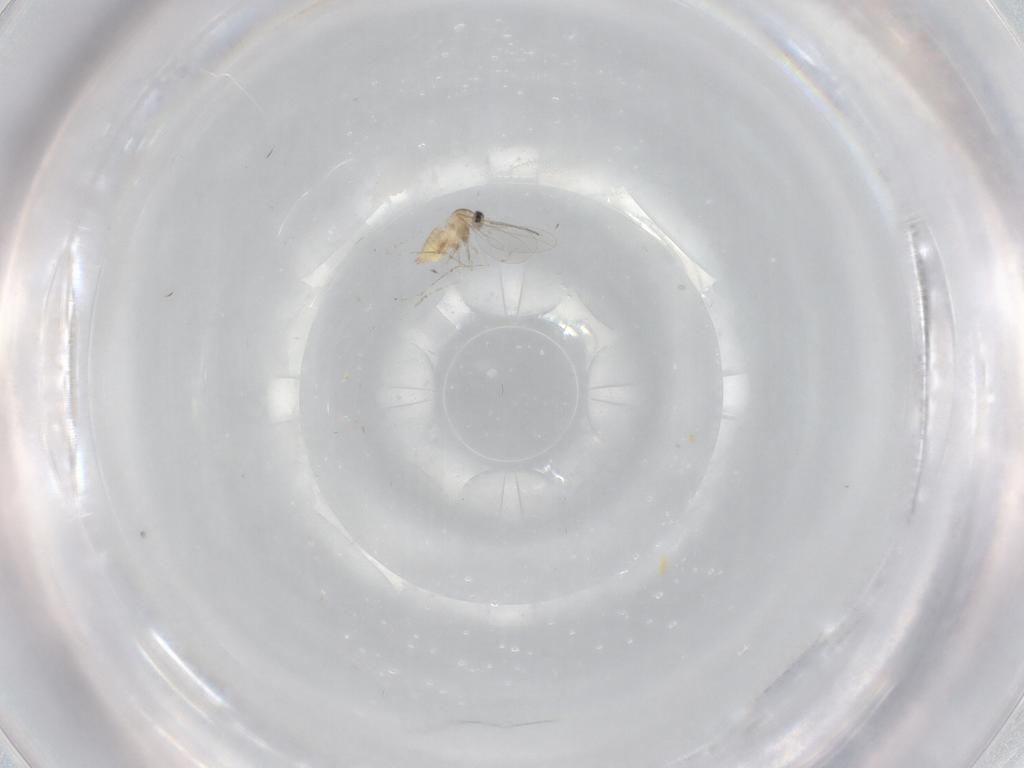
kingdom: Animalia
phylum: Arthropoda
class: Insecta
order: Diptera
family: Cecidomyiidae
